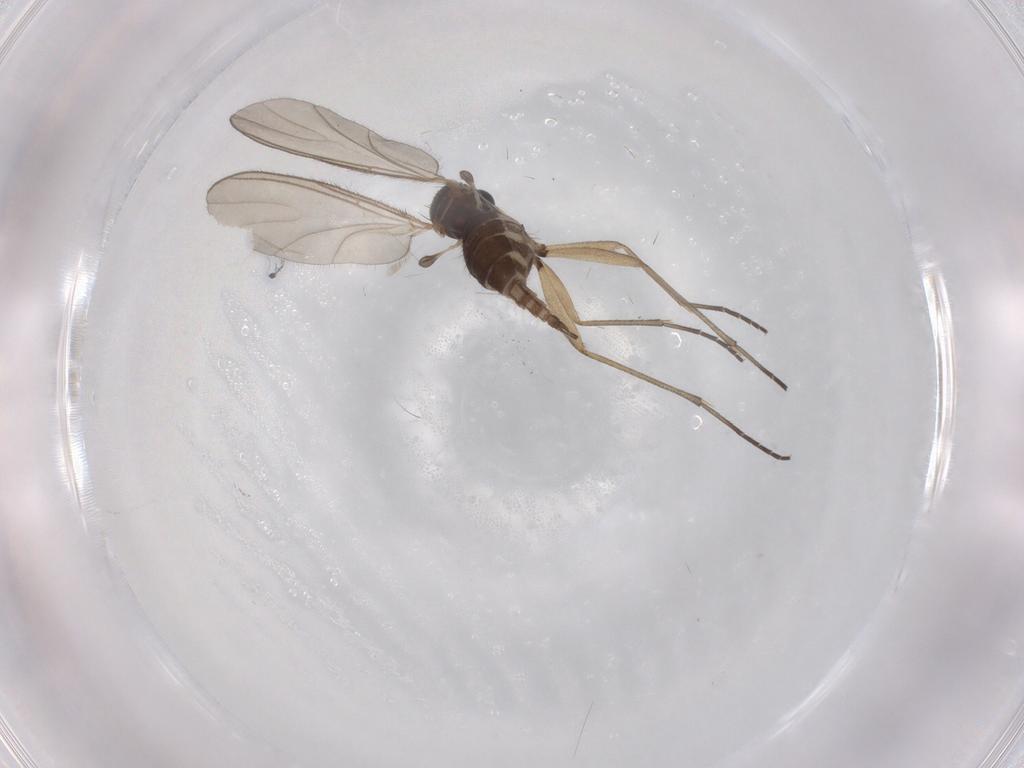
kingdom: Animalia
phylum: Arthropoda
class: Insecta
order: Diptera
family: Sciaridae
